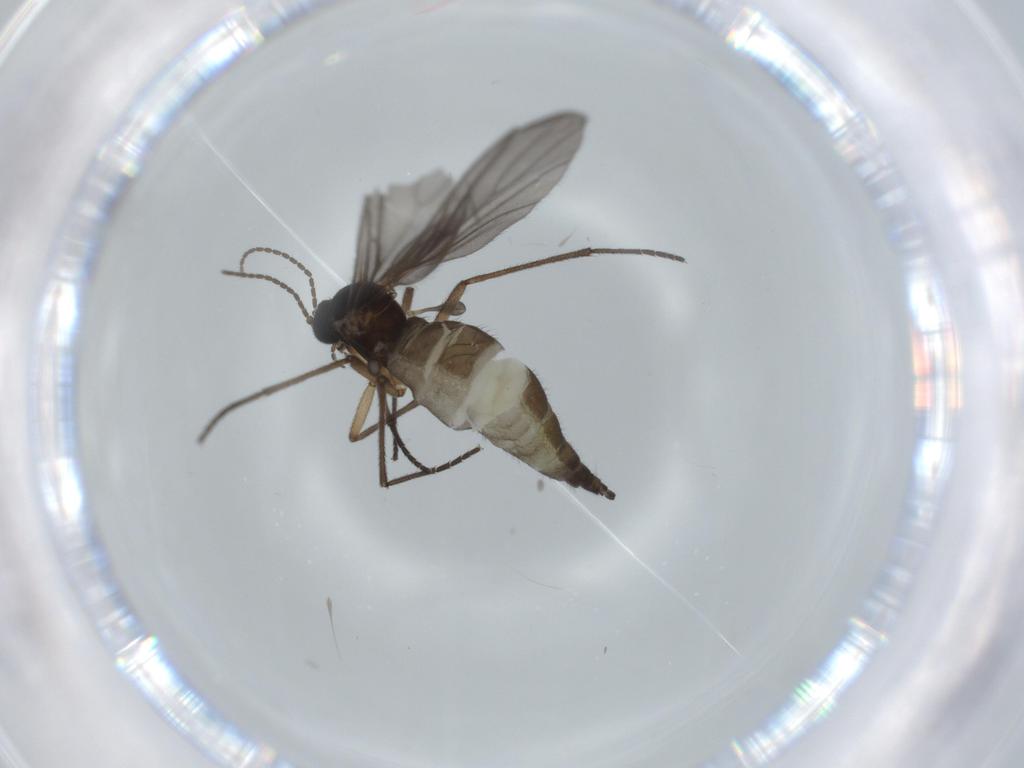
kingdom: Animalia
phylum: Arthropoda
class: Insecta
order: Diptera
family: Sciaridae
